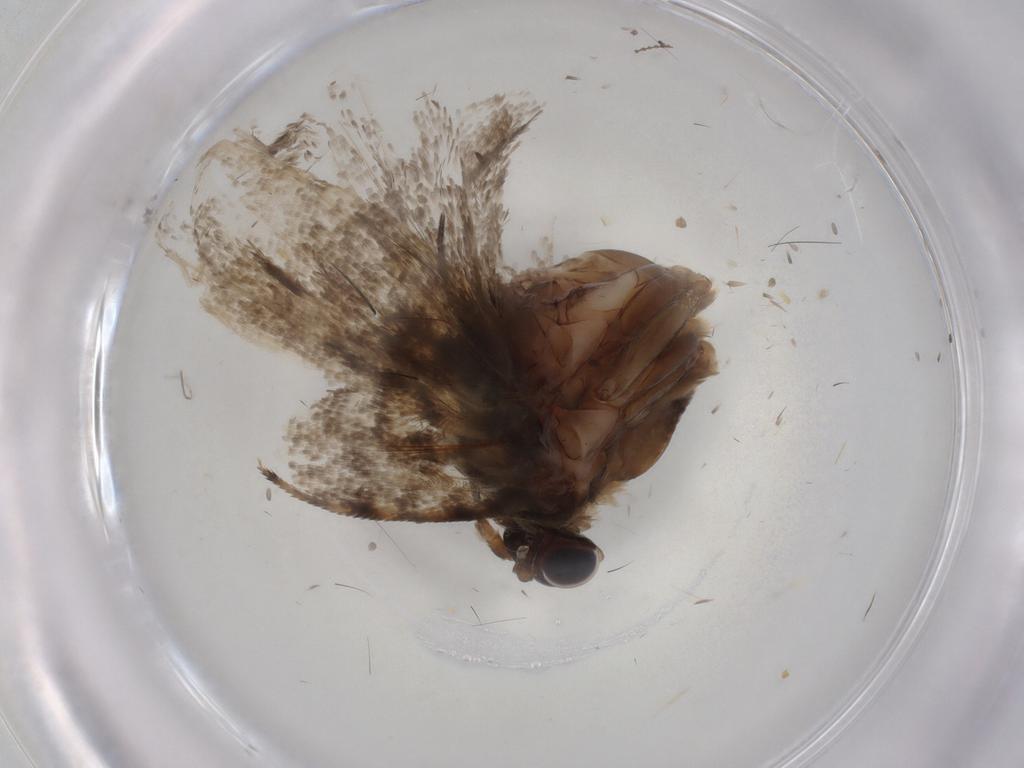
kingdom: Animalia
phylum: Arthropoda
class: Insecta
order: Lepidoptera
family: Tortricidae
